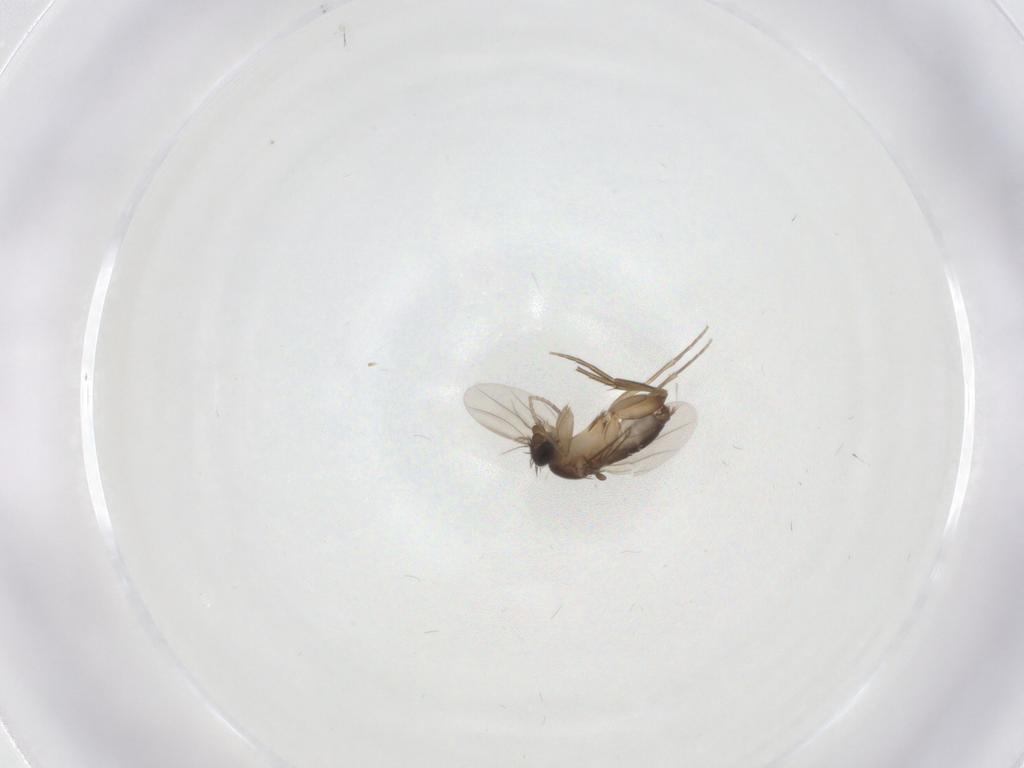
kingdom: Animalia
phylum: Arthropoda
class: Insecta
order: Diptera
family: Phoridae
